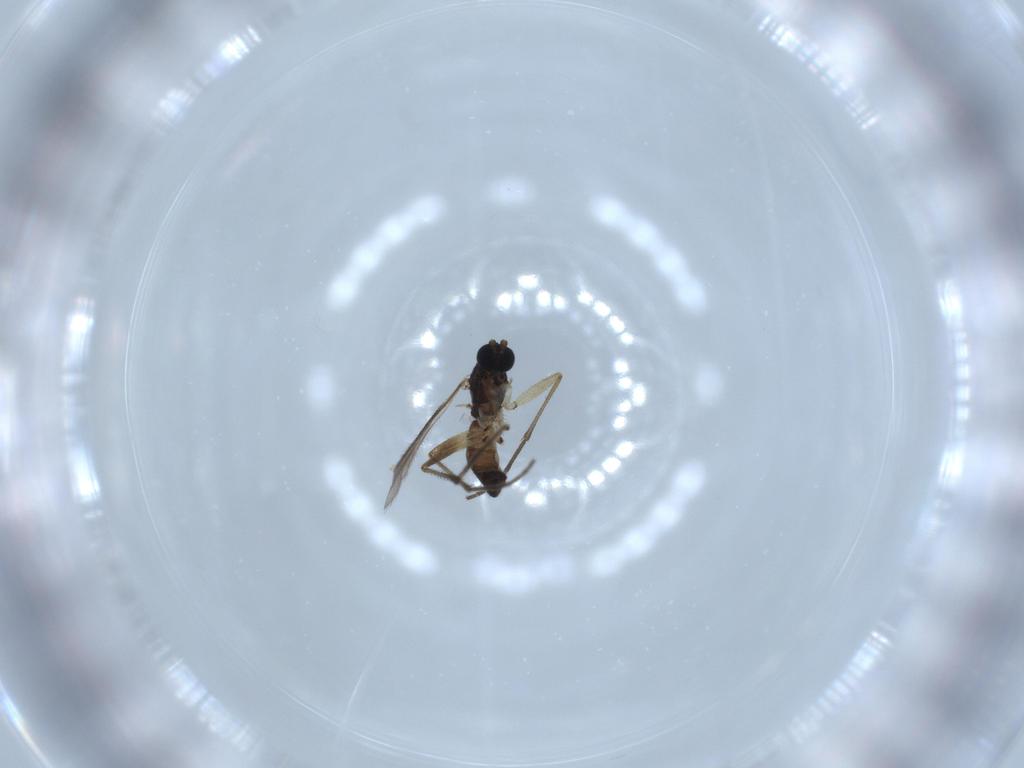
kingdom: Animalia
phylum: Arthropoda
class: Insecta
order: Diptera
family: Sciaridae
